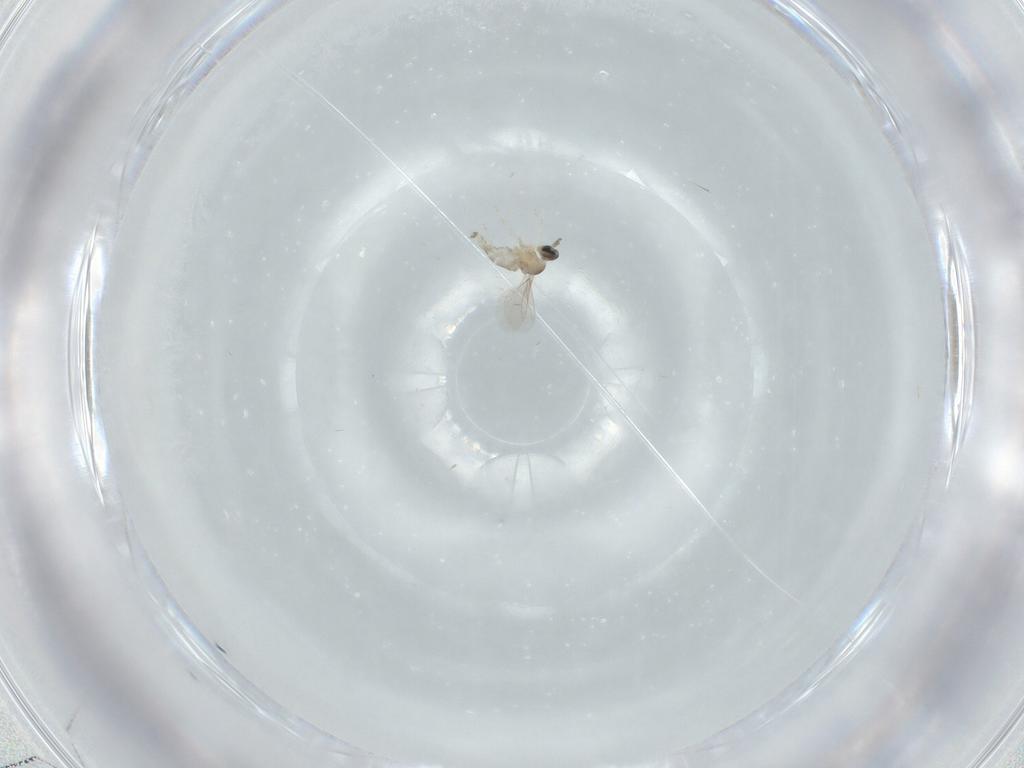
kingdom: Animalia
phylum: Arthropoda
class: Insecta
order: Diptera
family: Cecidomyiidae
